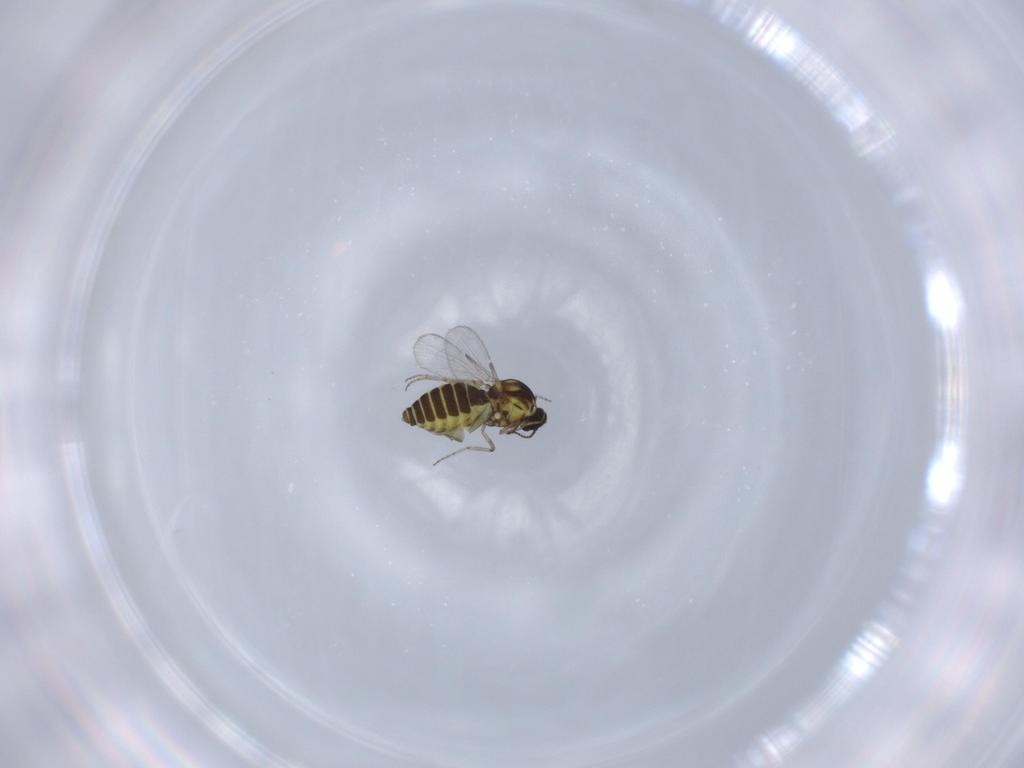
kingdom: Animalia
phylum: Arthropoda
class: Insecta
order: Diptera
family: Ceratopogonidae
